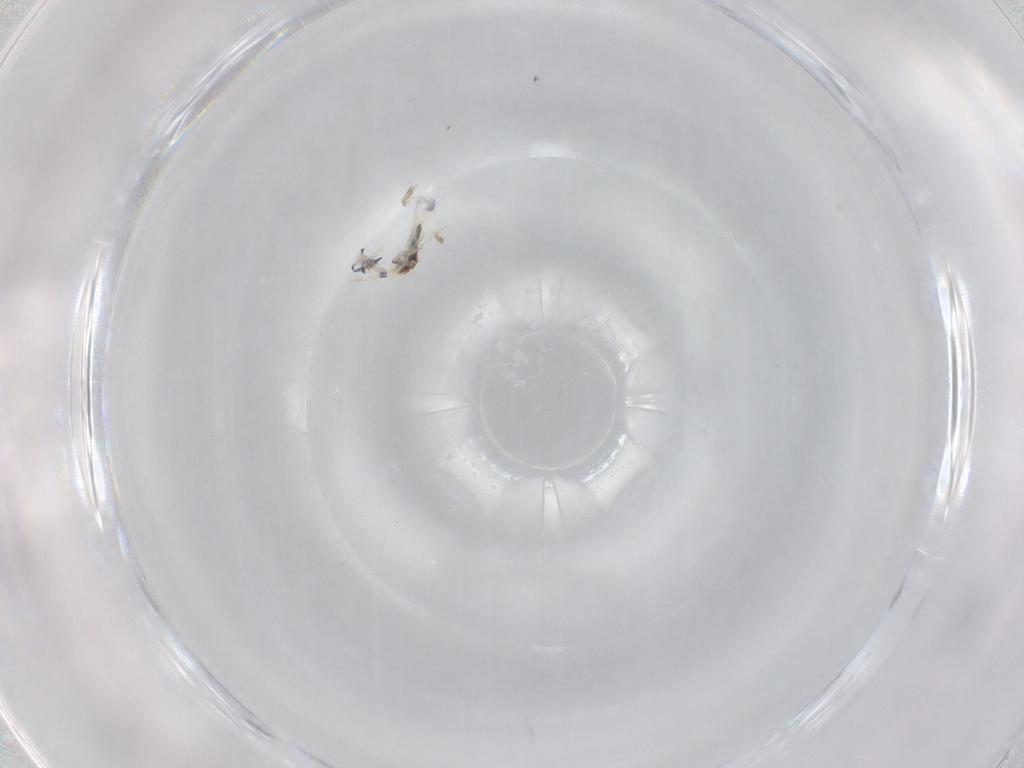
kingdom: Animalia
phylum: Arthropoda
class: Collembola
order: Entomobryomorpha
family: Entomobryidae
